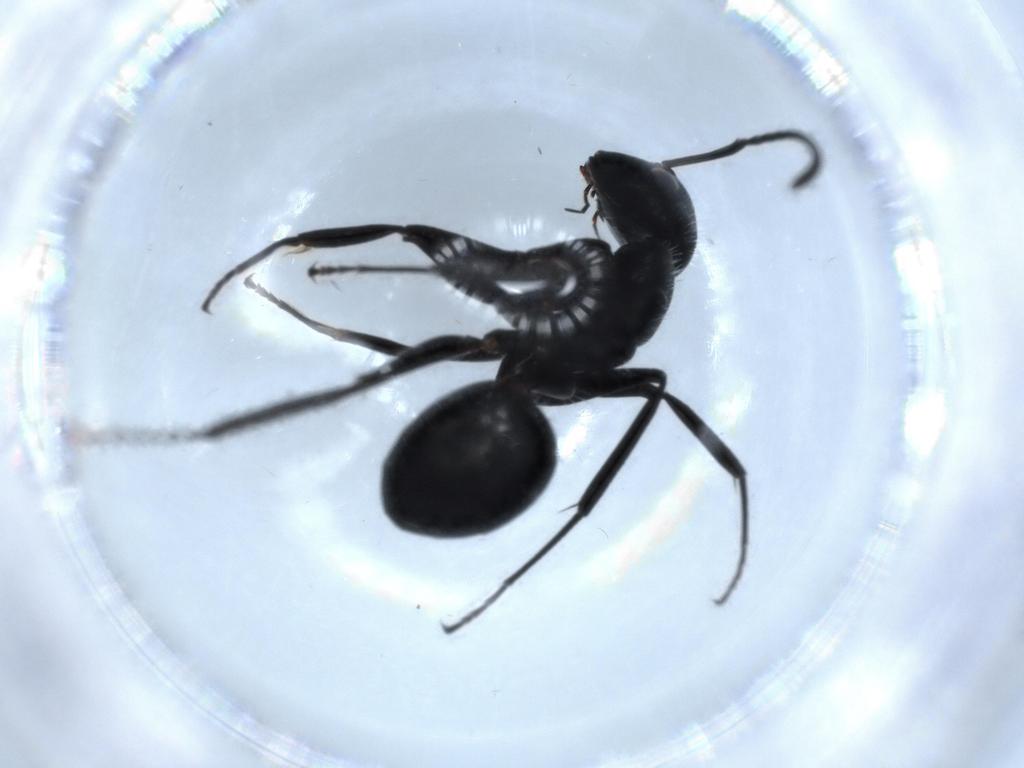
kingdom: Animalia
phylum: Arthropoda
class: Insecta
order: Hymenoptera
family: Formicidae
